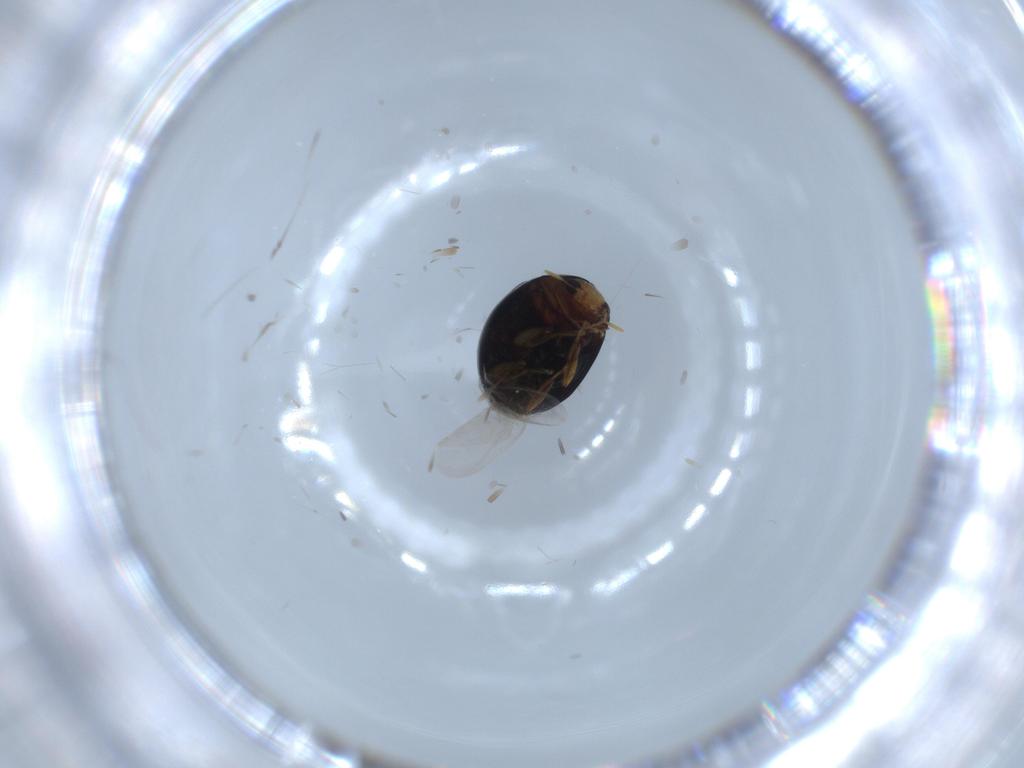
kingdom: Animalia
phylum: Arthropoda
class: Insecta
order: Coleoptera
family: Coccinellidae
